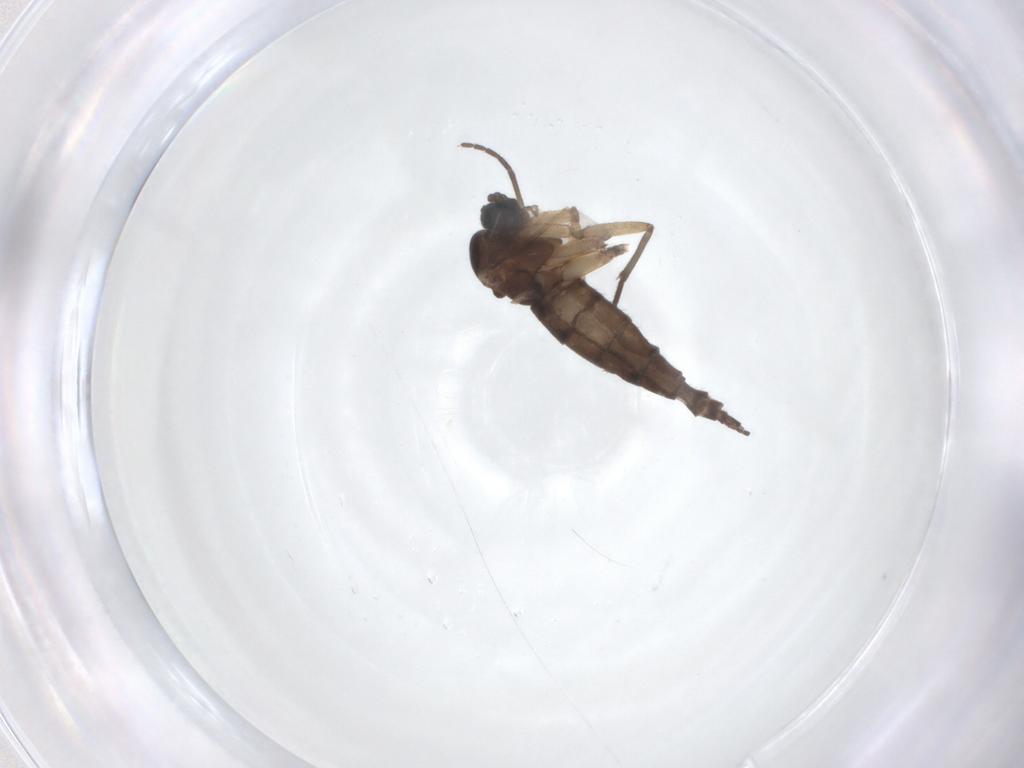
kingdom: Animalia
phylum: Arthropoda
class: Insecta
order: Diptera
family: Sciaridae
